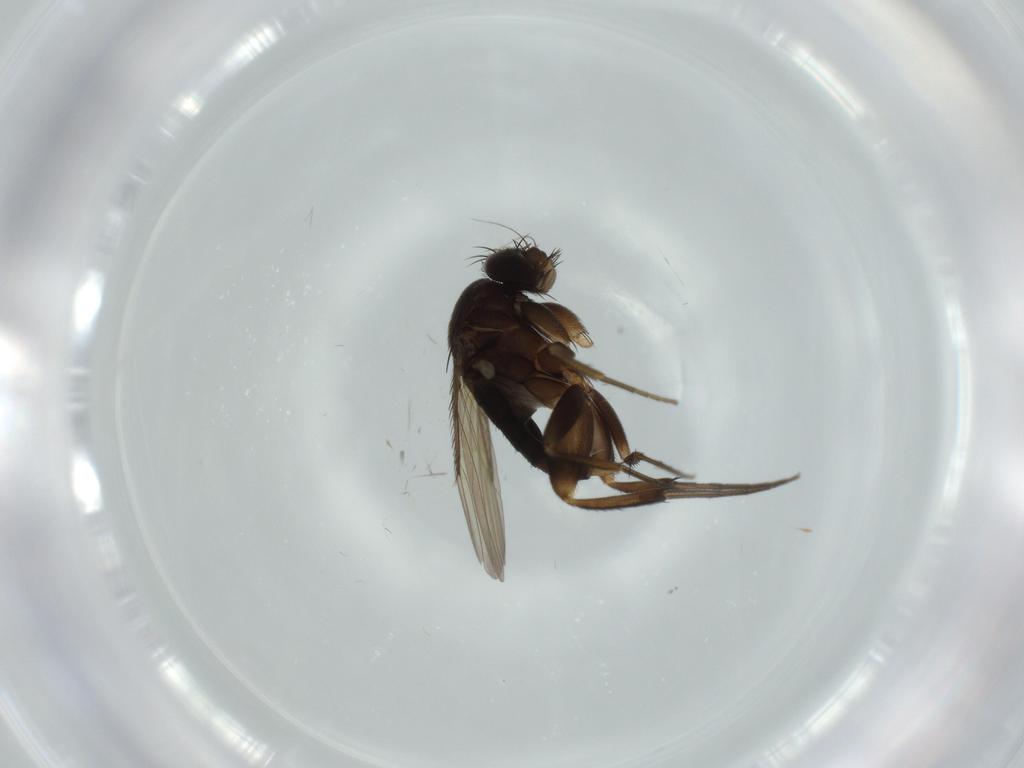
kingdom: Animalia
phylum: Arthropoda
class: Insecta
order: Diptera
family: Phoridae
